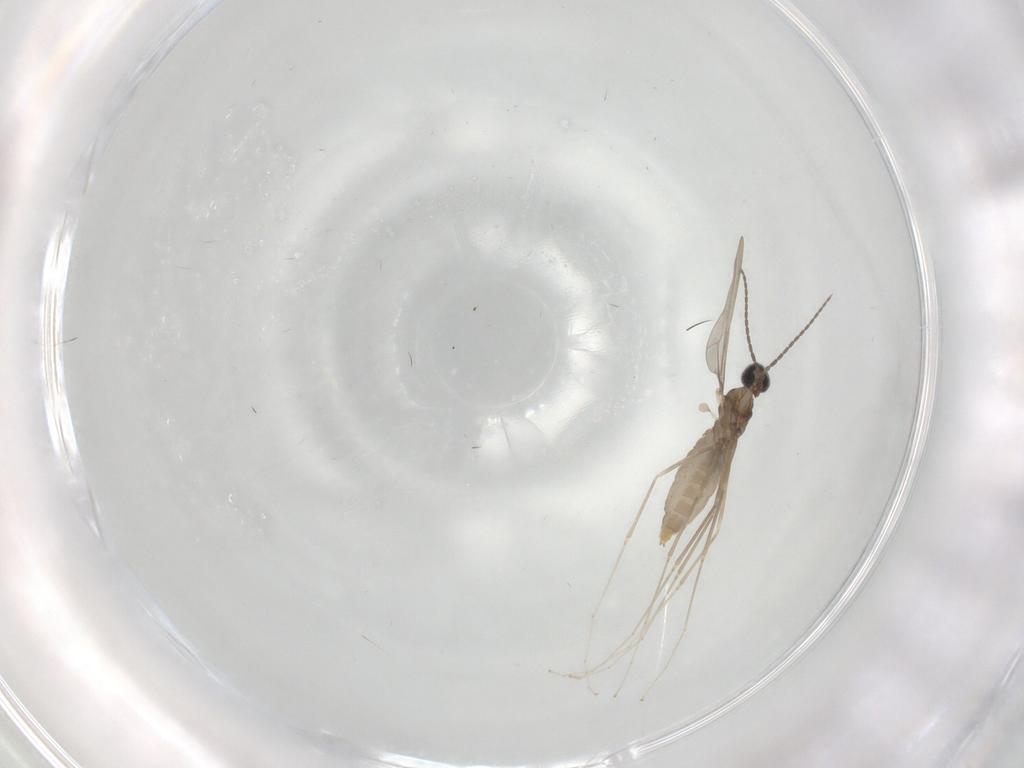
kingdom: Animalia
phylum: Arthropoda
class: Insecta
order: Diptera
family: Cecidomyiidae
